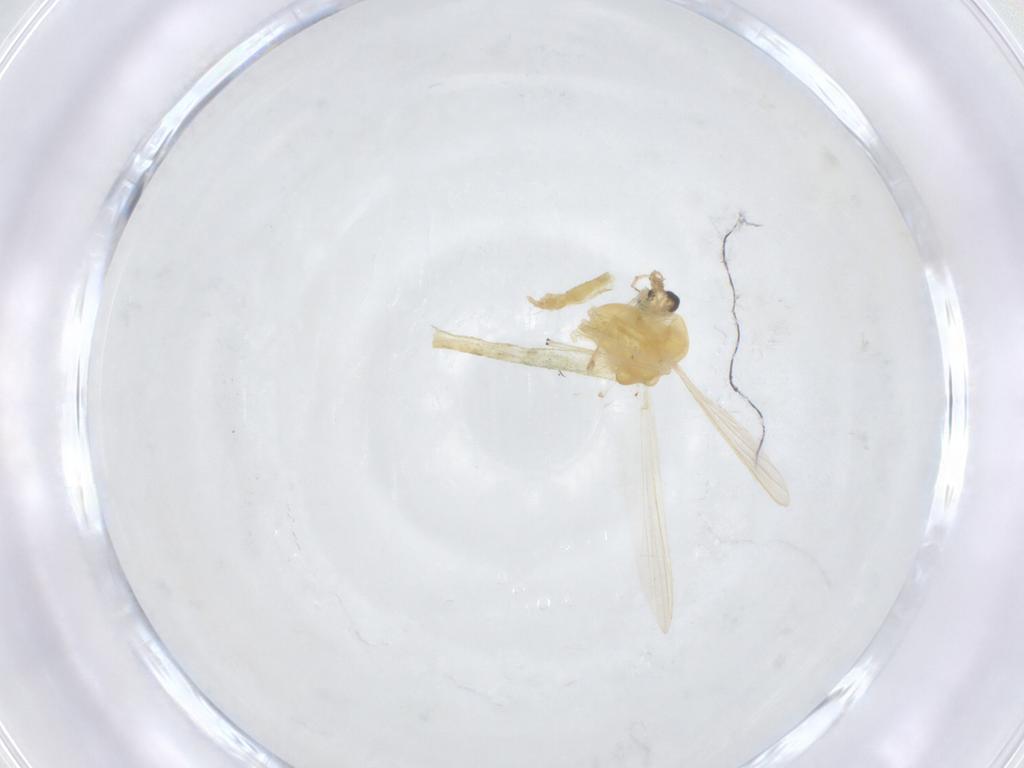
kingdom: Animalia
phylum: Arthropoda
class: Insecta
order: Diptera
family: Chironomidae
